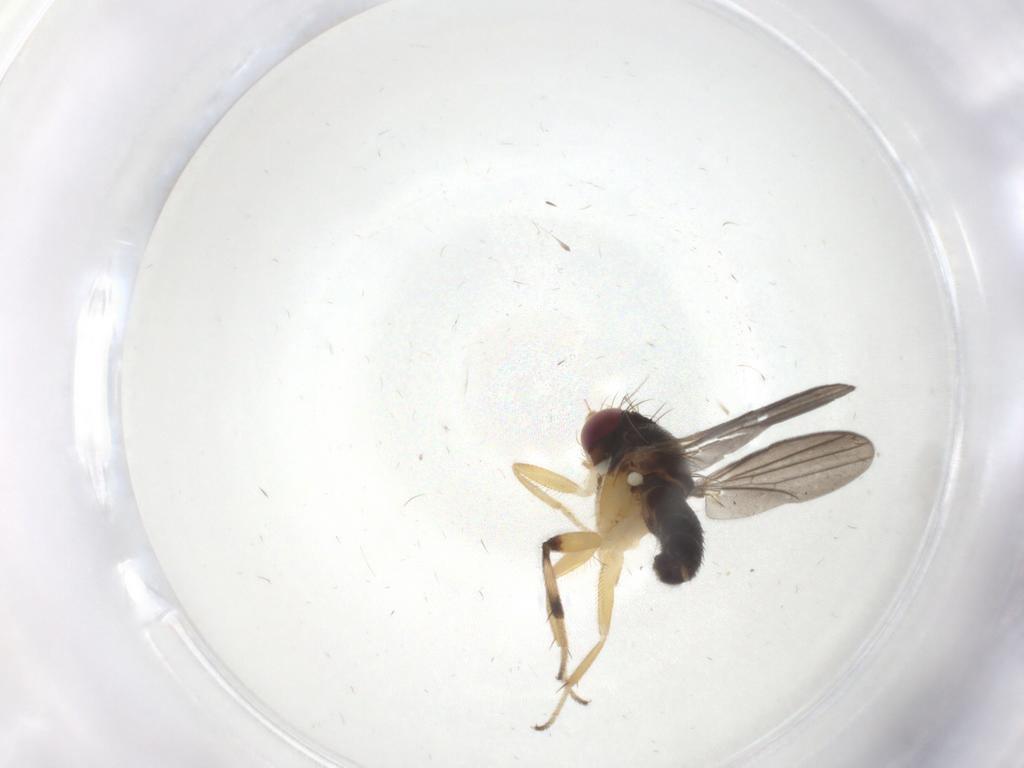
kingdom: Animalia
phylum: Arthropoda
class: Insecta
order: Diptera
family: Clusiidae
